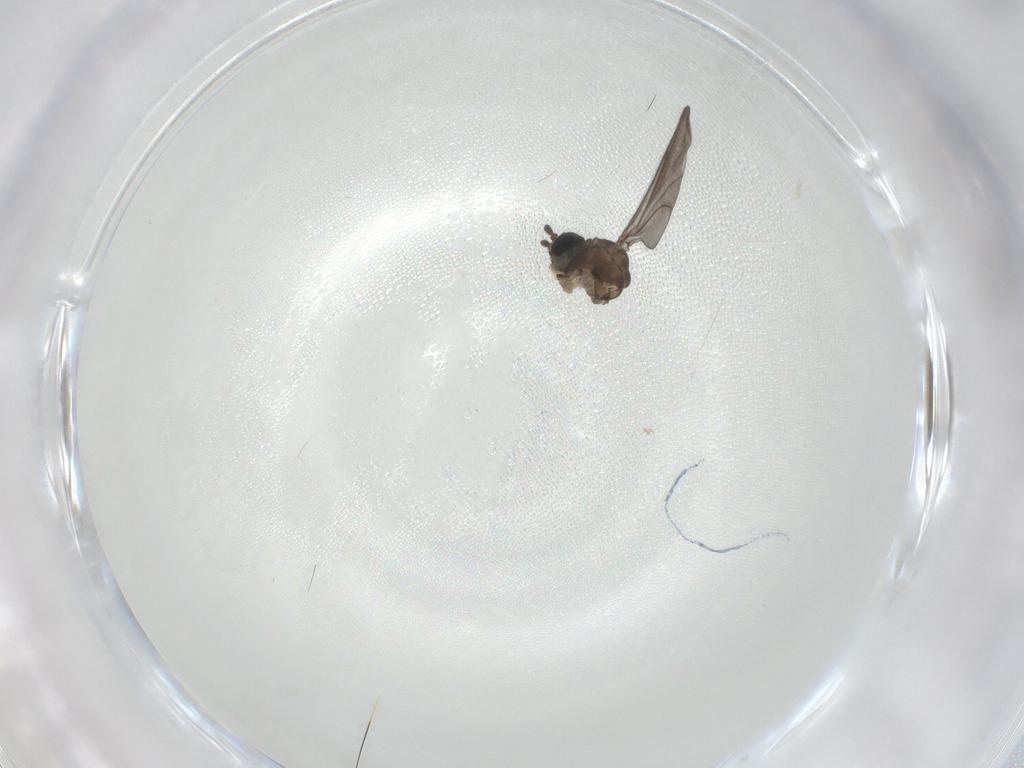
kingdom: Animalia
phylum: Arthropoda
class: Insecta
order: Diptera
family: Sciaridae
